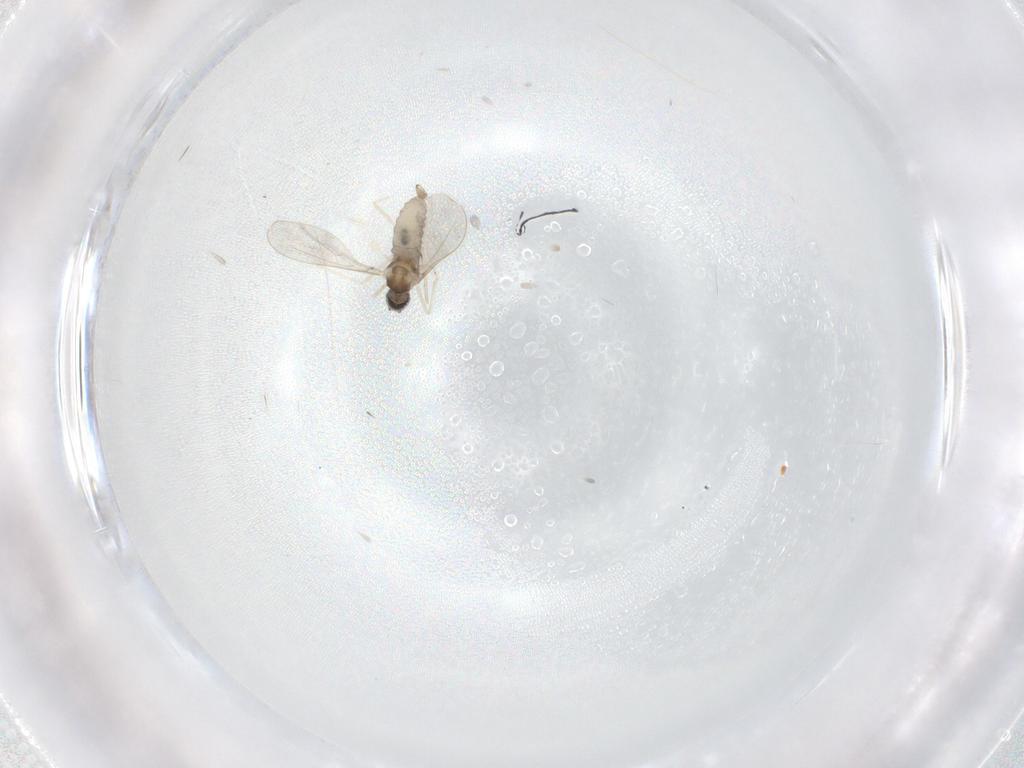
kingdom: Animalia
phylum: Arthropoda
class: Insecta
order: Diptera
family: Cecidomyiidae
